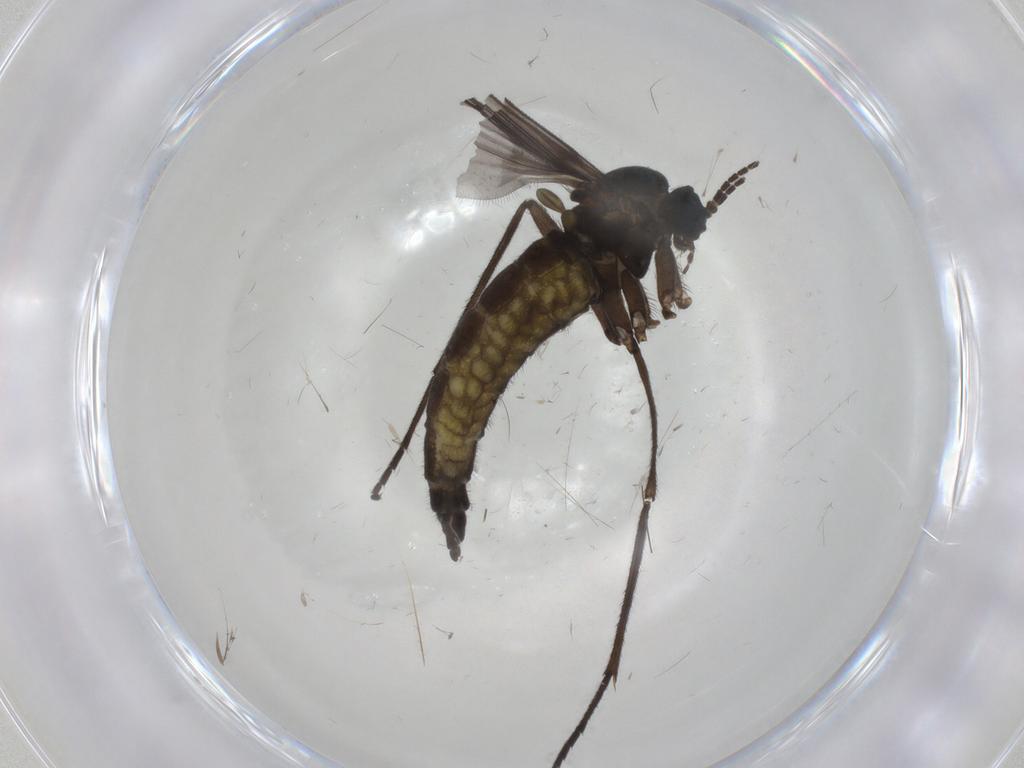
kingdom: Animalia
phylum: Arthropoda
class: Insecta
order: Diptera
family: Sciaridae
